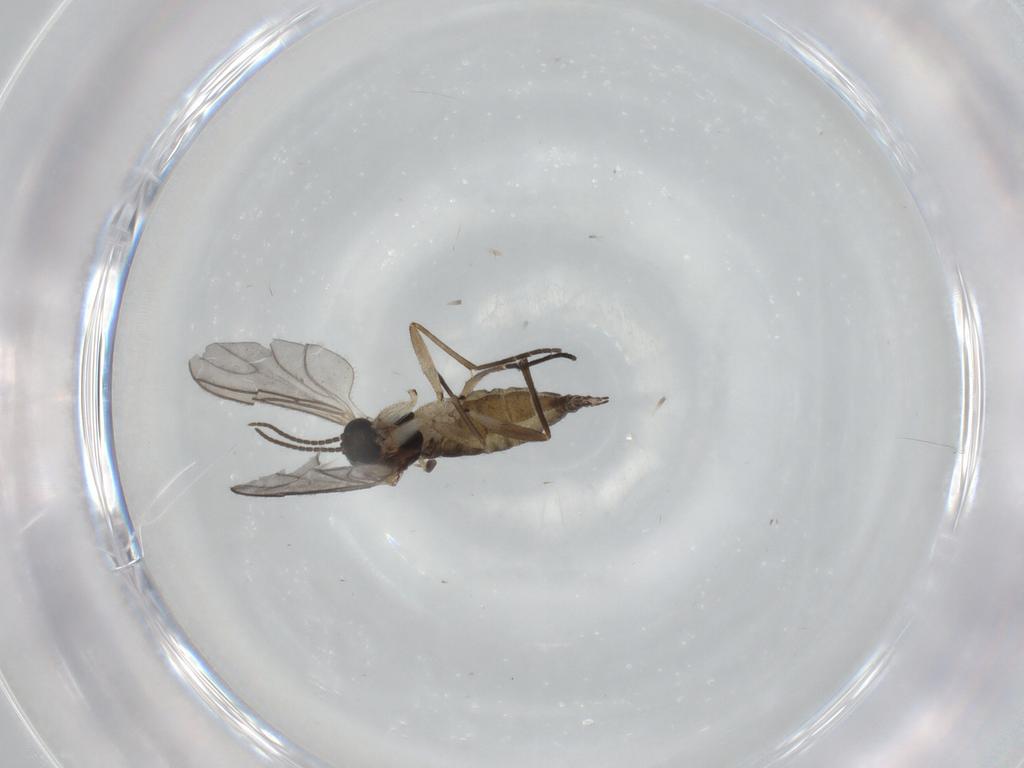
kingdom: Animalia
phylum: Arthropoda
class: Insecta
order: Diptera
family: Sciaridae
